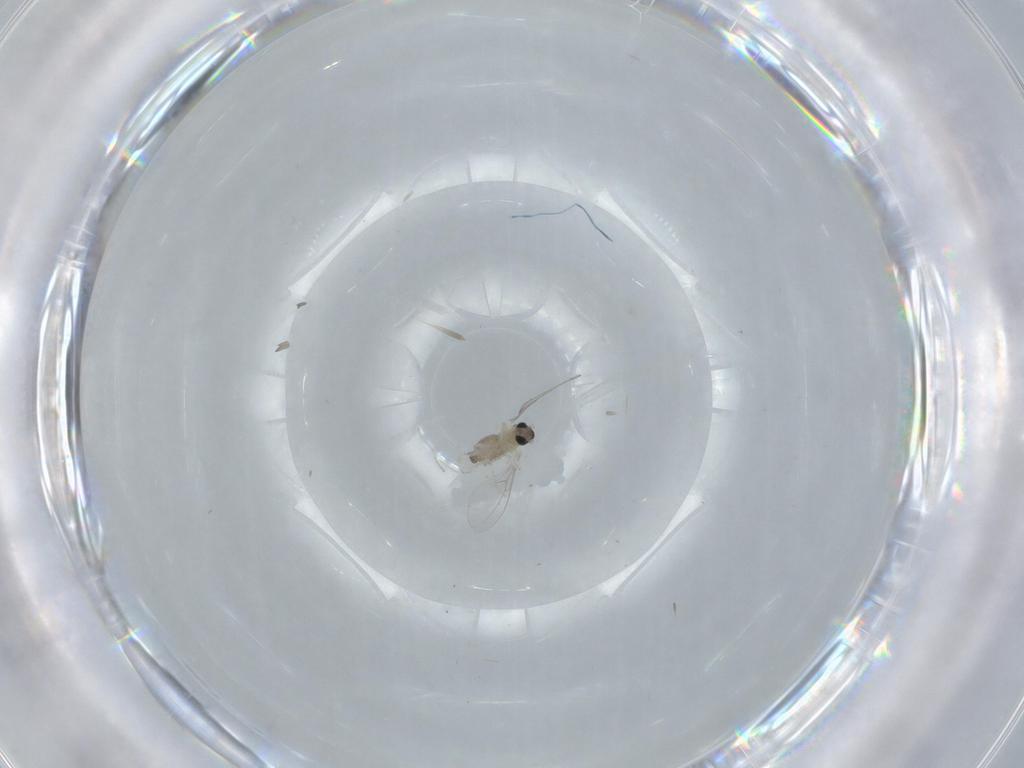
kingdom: Animalia
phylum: Arthropoda
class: Insecta
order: Diptera
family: Cecidomyiidae
